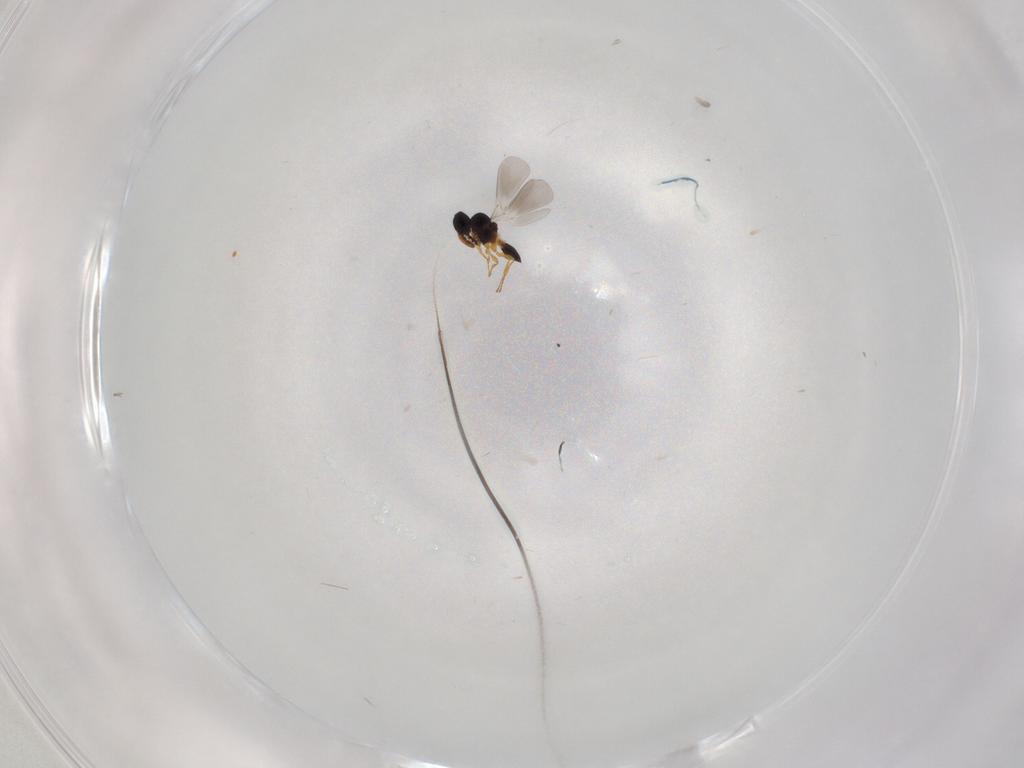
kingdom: Animalia
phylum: Arthropoda
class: Insecta
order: Hymenoptera
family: Platygastridae
